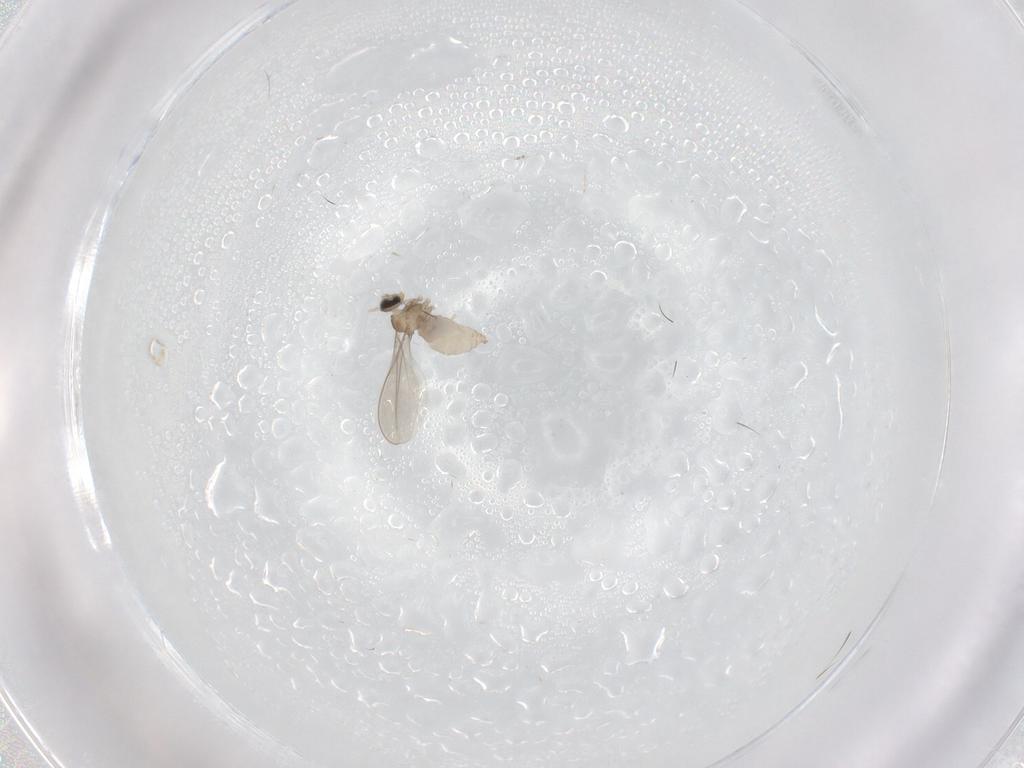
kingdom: Animalia
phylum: Arthropoda
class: Insecta
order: Diptera
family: Cecidomyiidae
